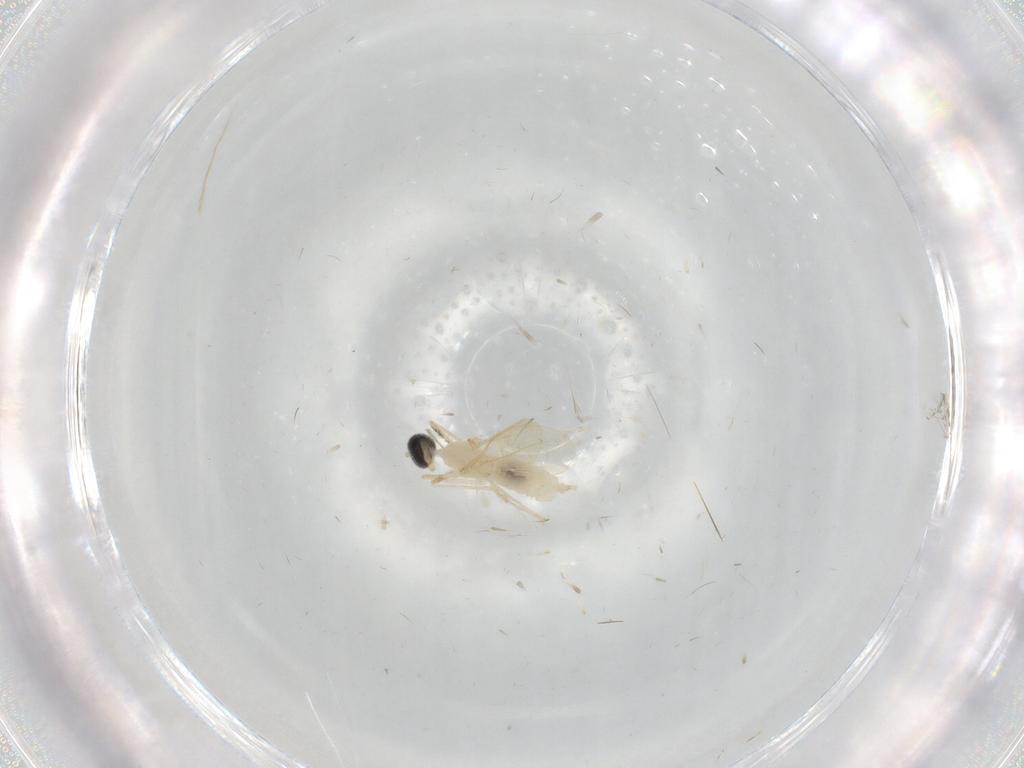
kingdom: Animalia
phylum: Arthropoda
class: Insecta
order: Diptera
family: Cecidomyiidae
